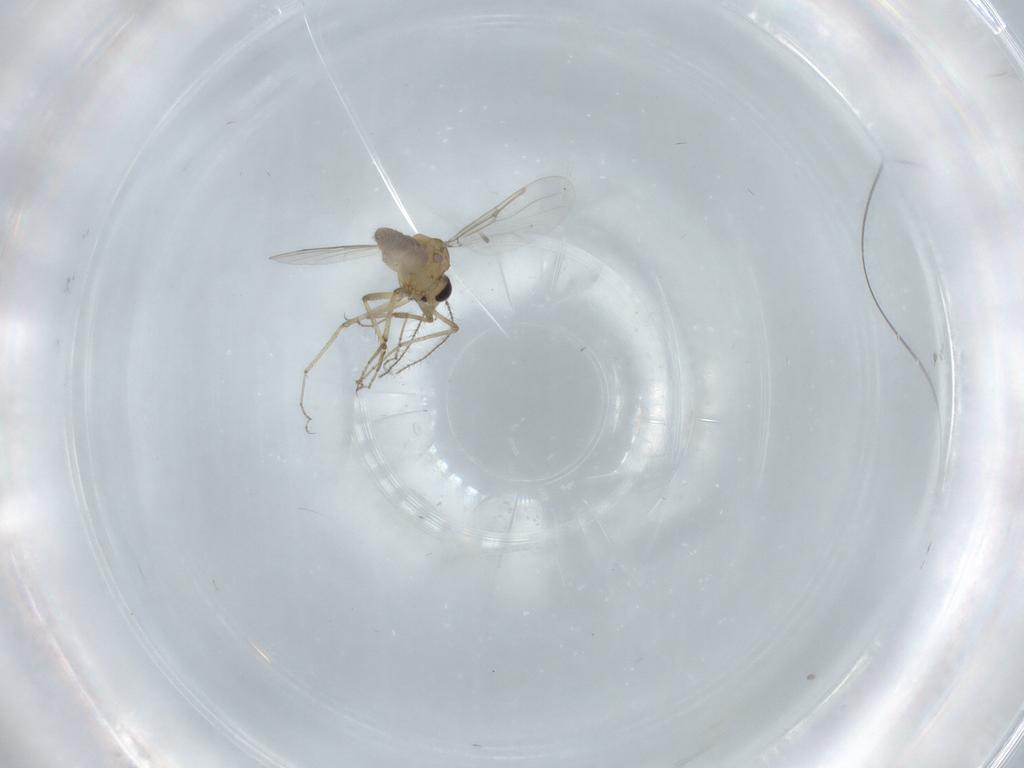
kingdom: Animalia
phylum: Arthropoda
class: Insecta
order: Diptera
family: Ceratopogonidae
